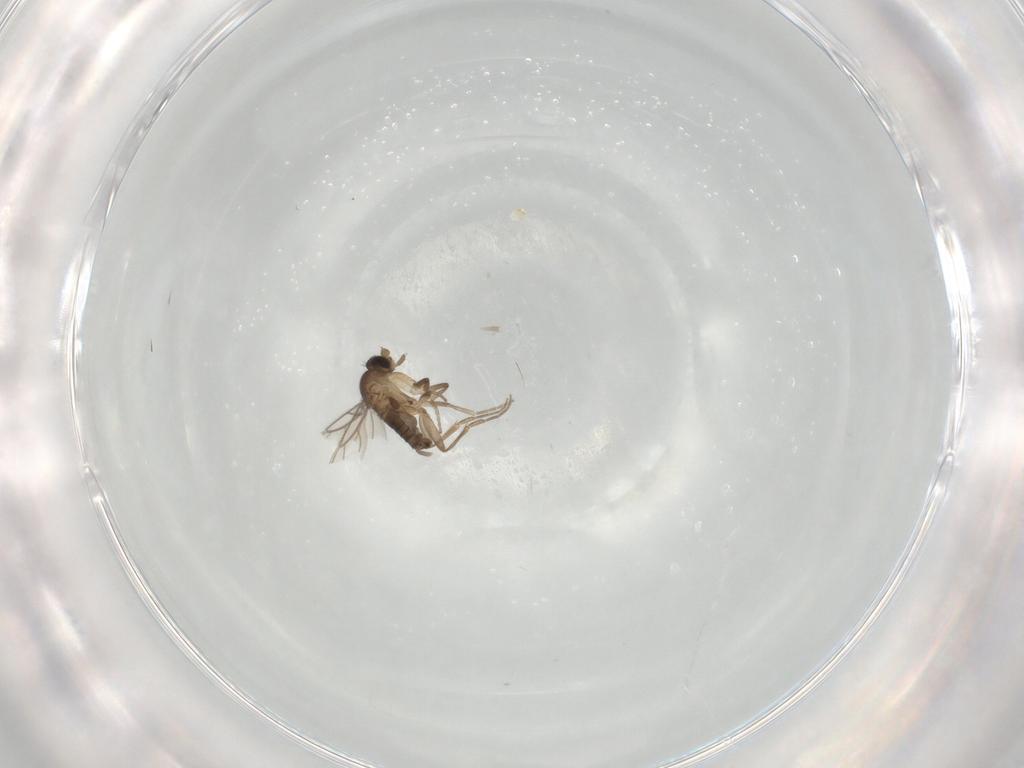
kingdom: Animalia
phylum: Arthropoda
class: Insecta
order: Diptera
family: Phoridae
